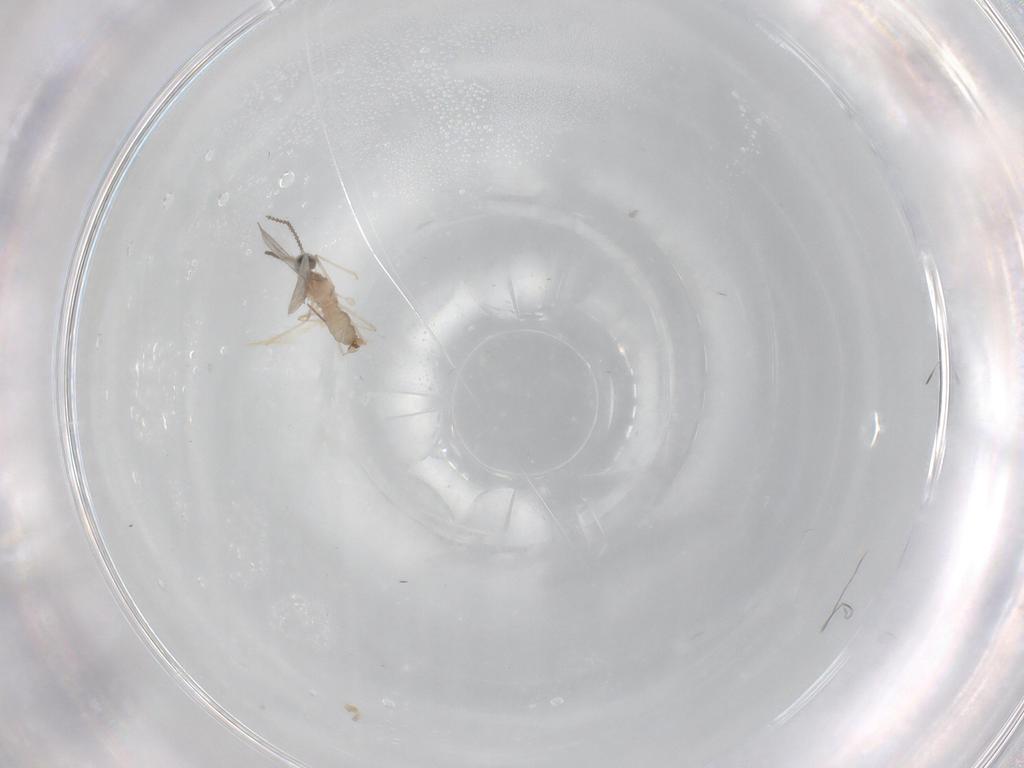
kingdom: Animalia
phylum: Arthropoda
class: Insecta
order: Diptera
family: Cecidomyiidae
